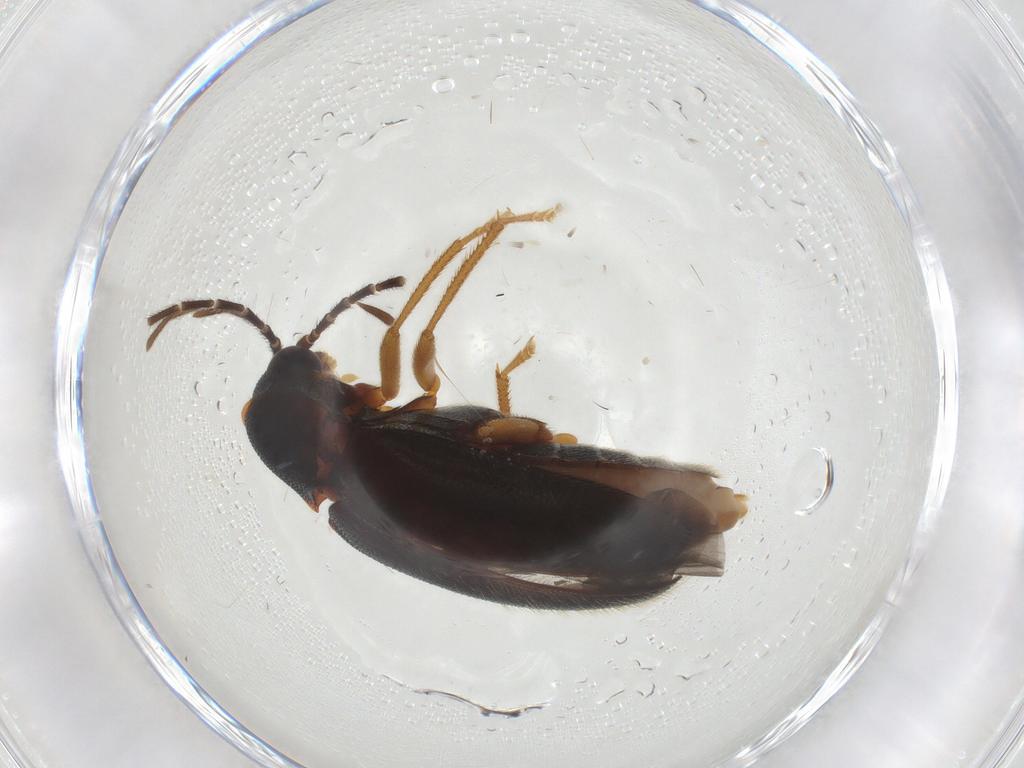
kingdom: Animalia
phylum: Arthropoda
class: Insecta
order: Coleoptera
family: Ptilodactylidae
